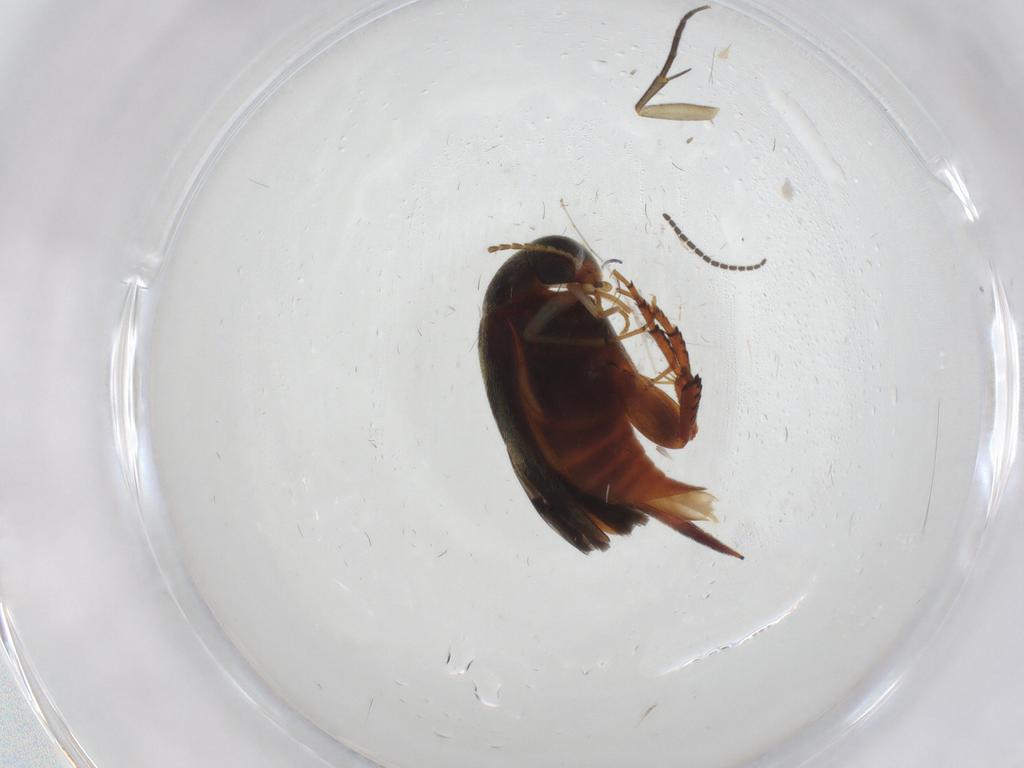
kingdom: Animalia
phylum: Arthropoda
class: Insecta
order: Coleoptera
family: Mordellidae
